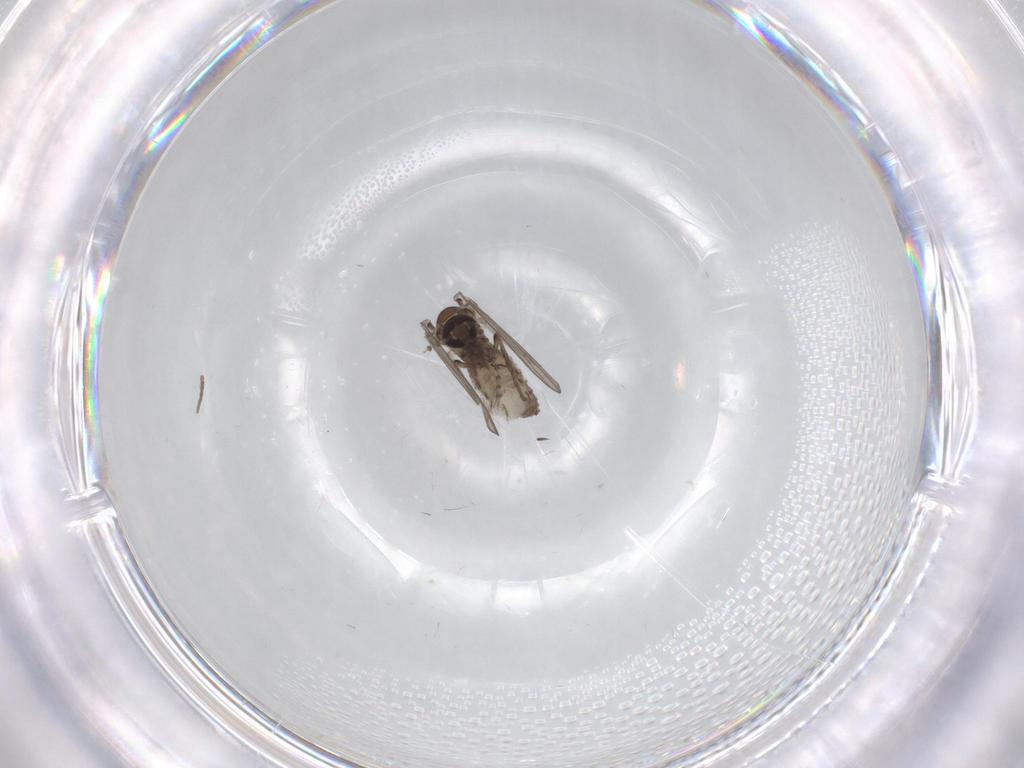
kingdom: Animalia
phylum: Arthropoda
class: Insecta
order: Diptera
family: Psychodidae
